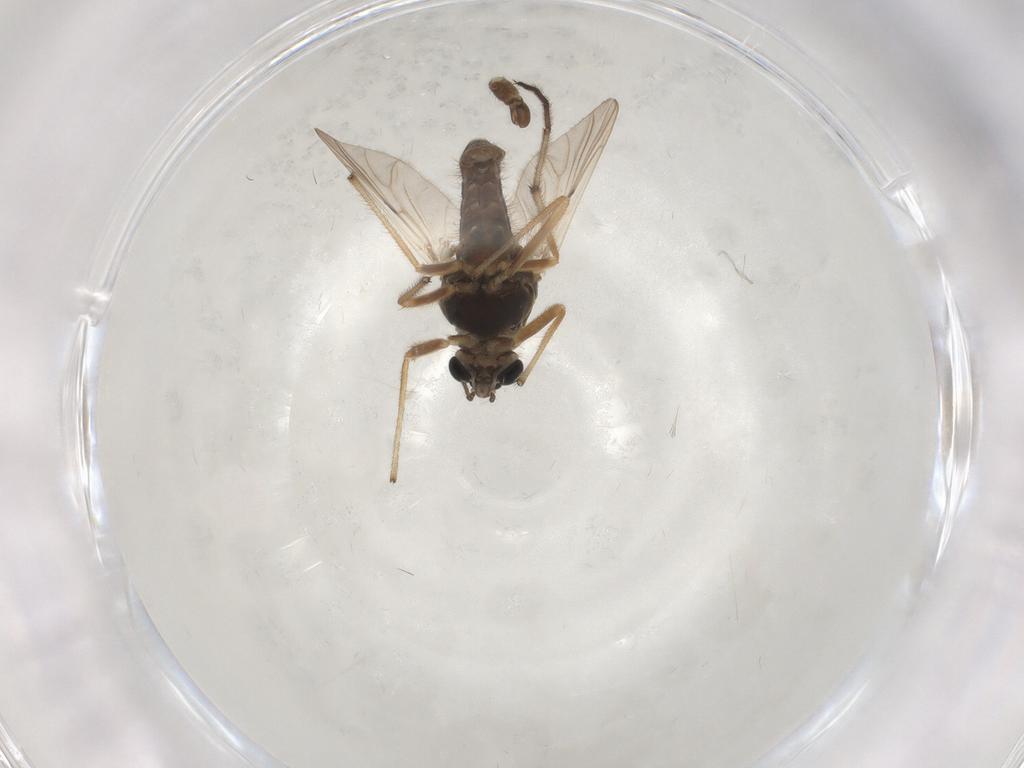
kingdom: Animalia
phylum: Arthropoda
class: Insecta
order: Diptera
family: Chironomidae
